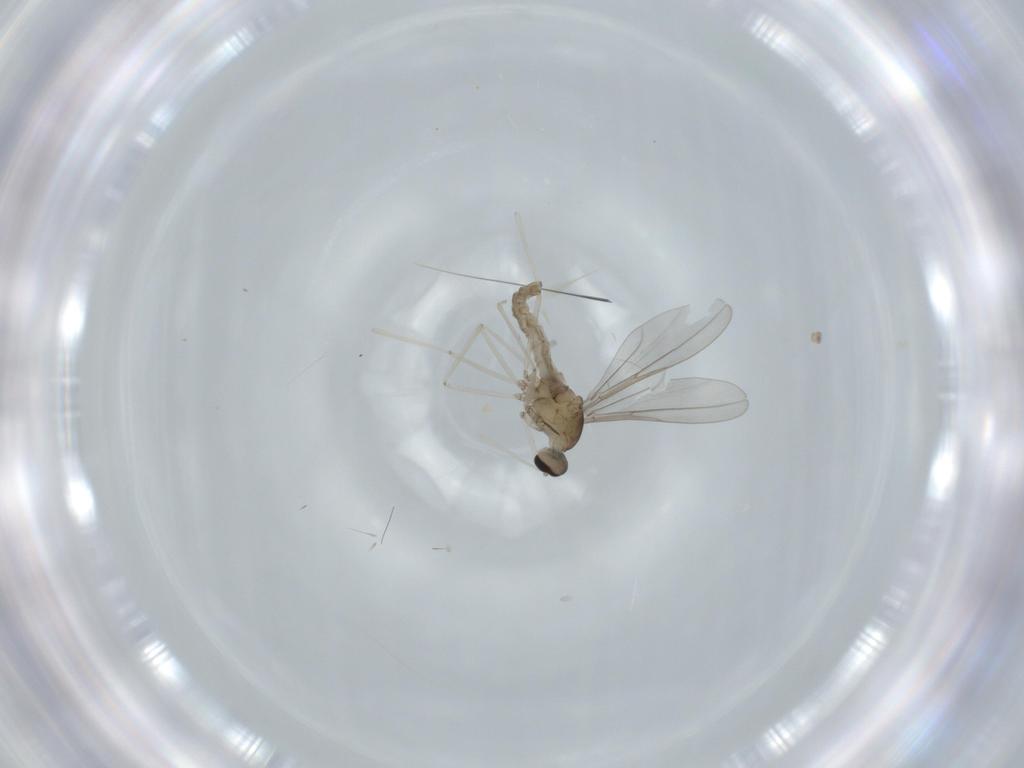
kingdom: Animalia
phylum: Arthropoda
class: Insecta
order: Diptera
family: Cecidomyiidae
